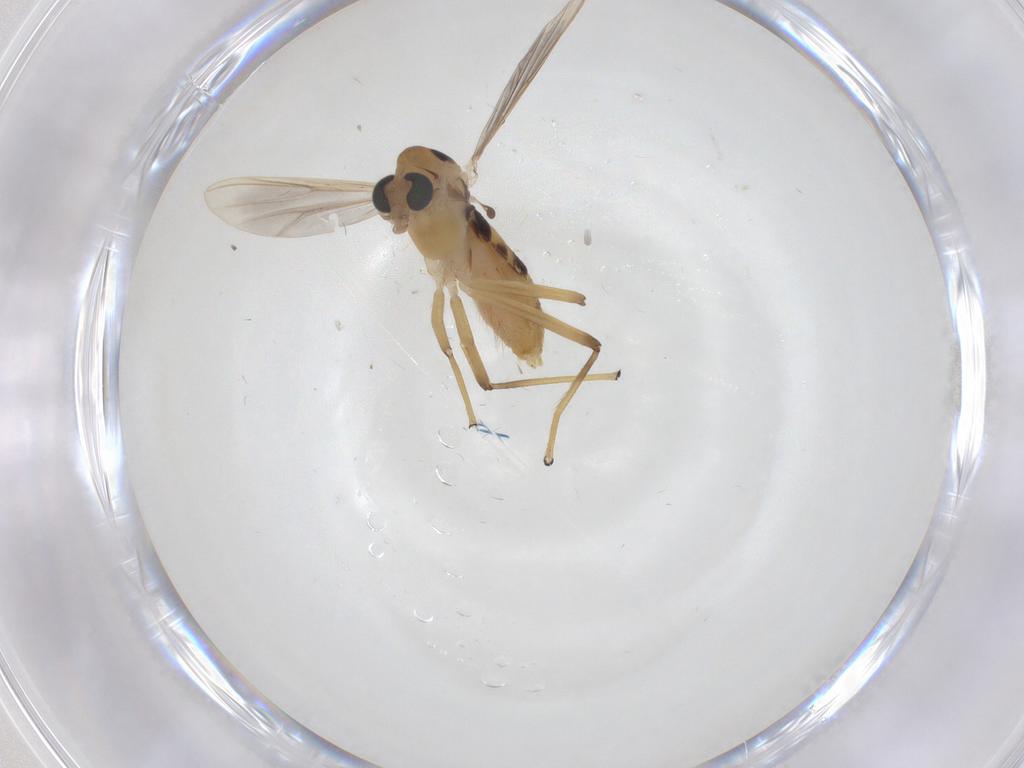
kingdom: Animalia
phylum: Arthropoda
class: Insecta
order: Diptera
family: Chironomidae
